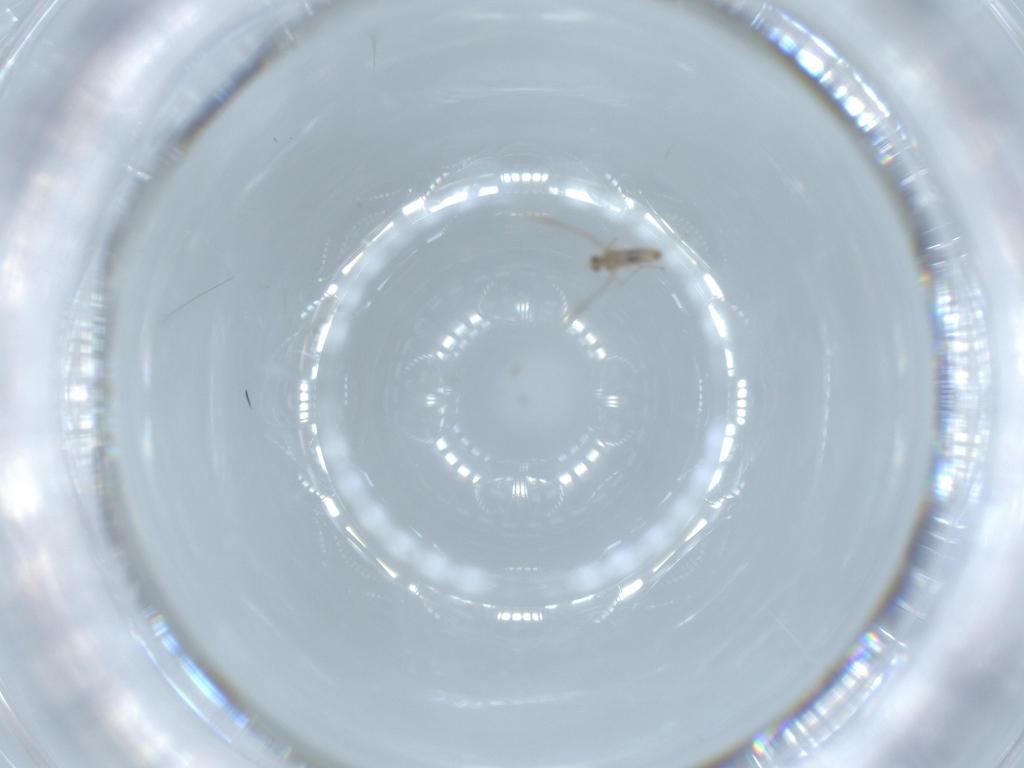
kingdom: Animalia
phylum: Arthropoda
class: Insecta
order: Diptera
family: Cecidomyiidae
